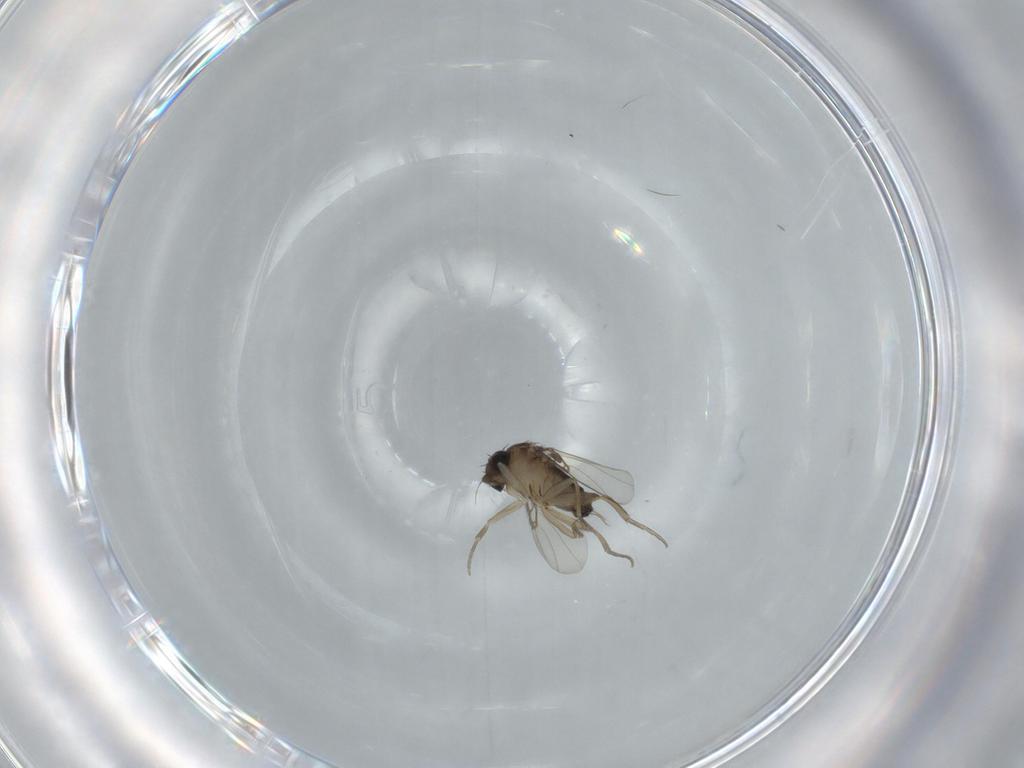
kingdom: Animalia
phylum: Arthropoda
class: Insecta
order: Diptera
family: Phoridae
